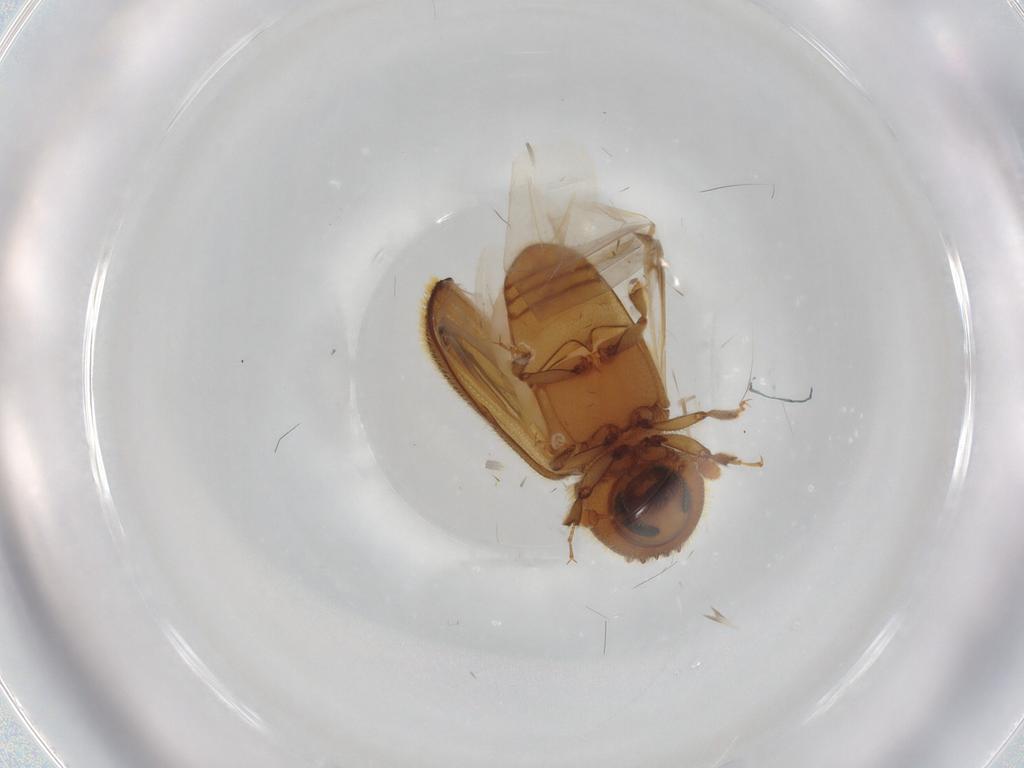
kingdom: Animalia
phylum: Arthropoda
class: Insecta
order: Coleoptera
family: Curculionidae
